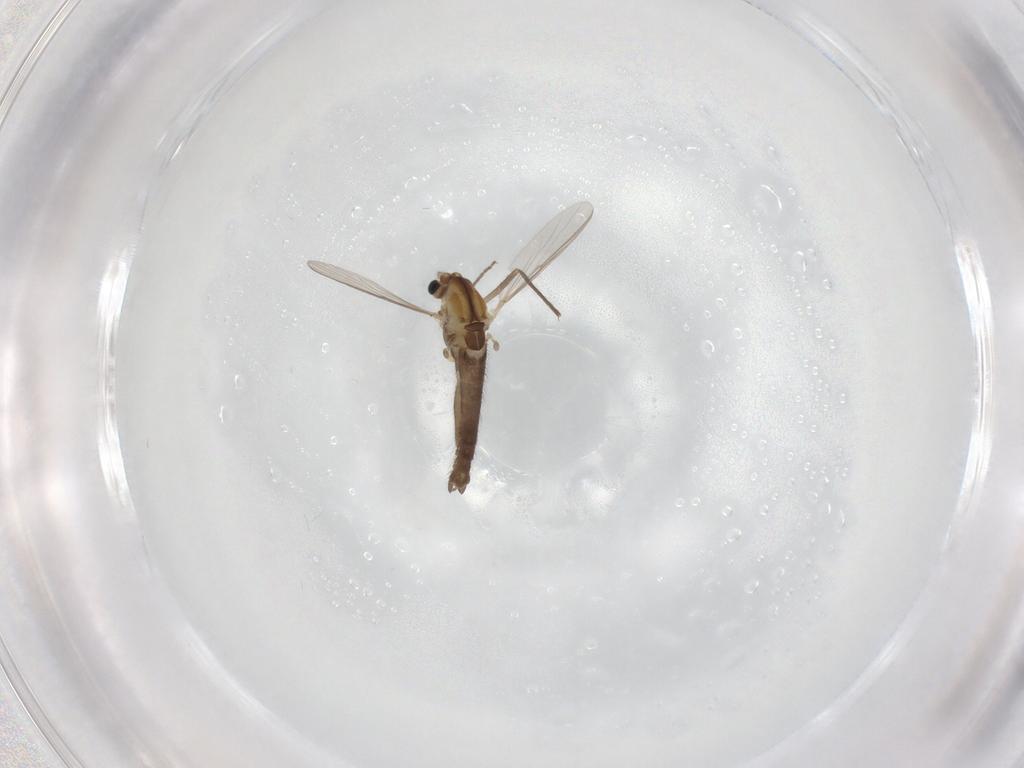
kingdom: Animalia
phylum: Arthropoda
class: Insecta
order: Diptera
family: Chironomidae
